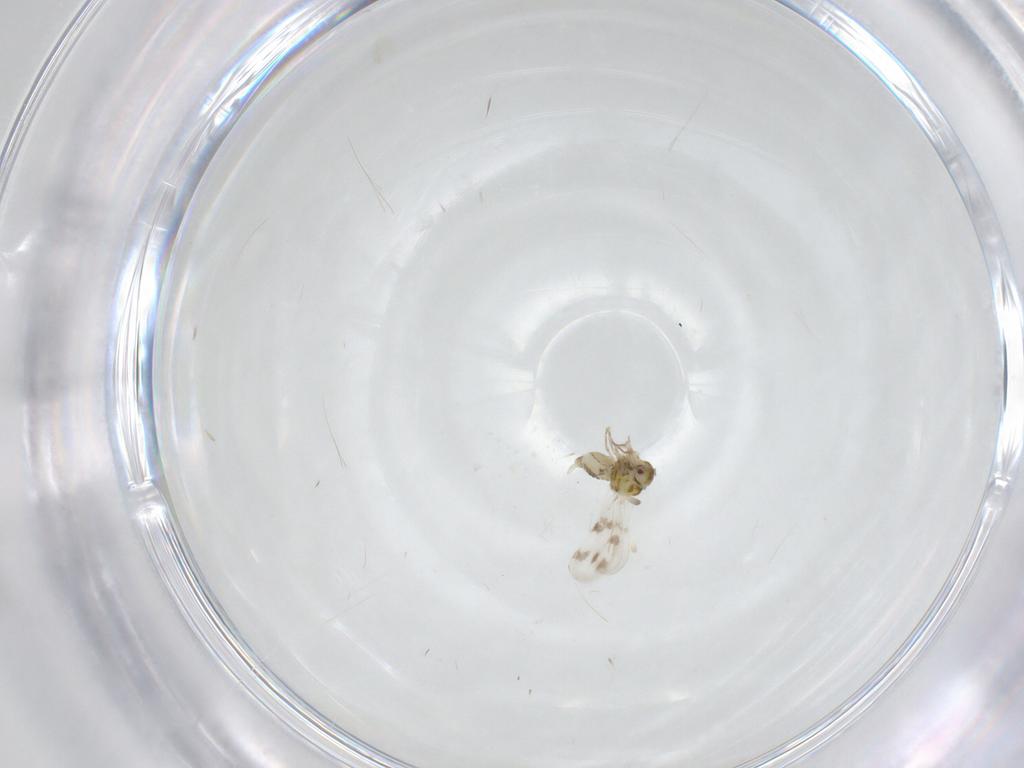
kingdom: Animalia
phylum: Arthropoda
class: Insecta
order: Hemiptera
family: Aleyrodidae
